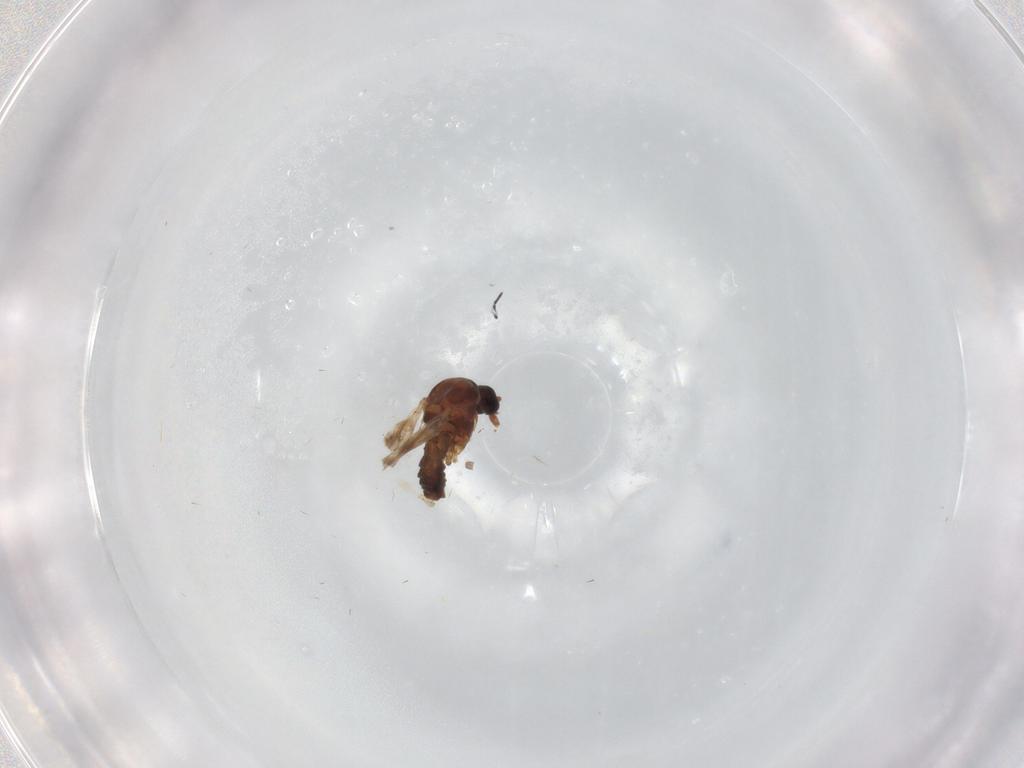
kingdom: Animalia
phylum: Arthropoda
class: Insecta
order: Diptera
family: Ceratopogonidae
